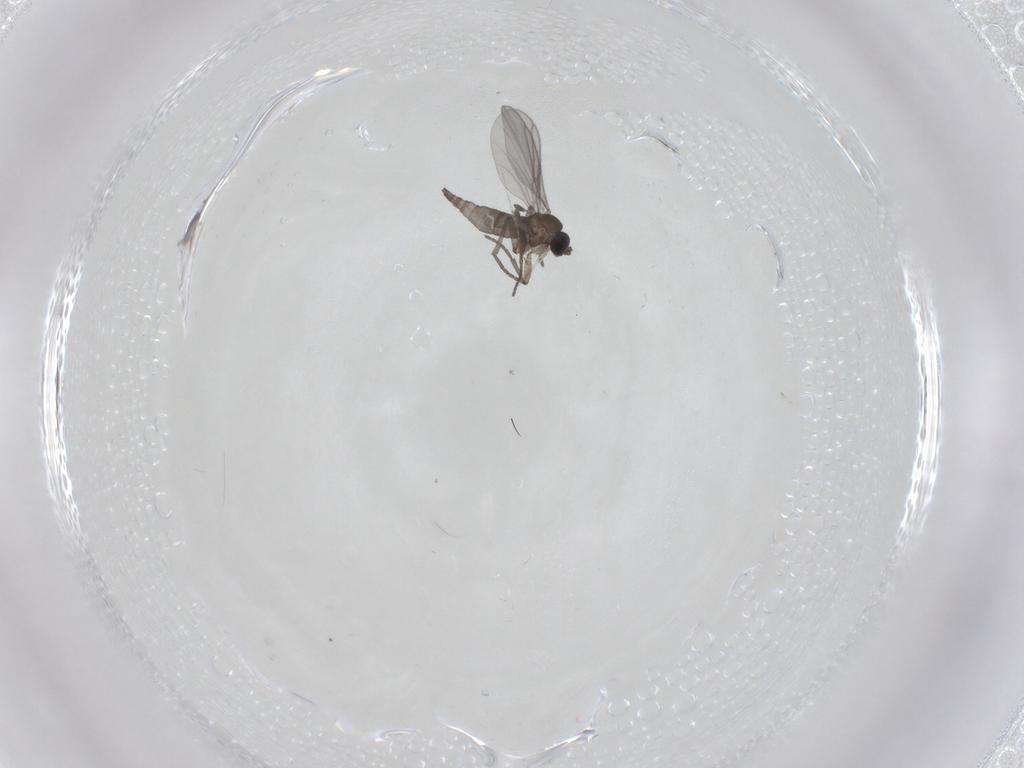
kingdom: Animalia
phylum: Arthropoda
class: Insecta
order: Diptera
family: Sciaridae
